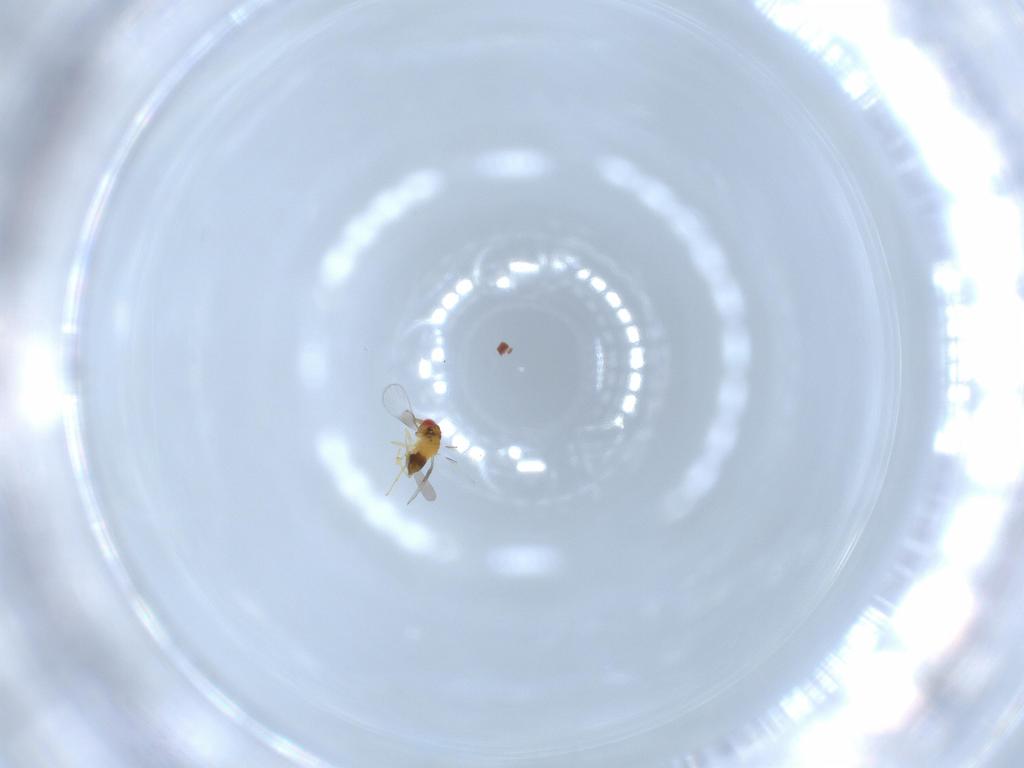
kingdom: Animalia
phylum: Arthropoda
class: Insecta
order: Hymenoptera
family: Trichogrammatidae
